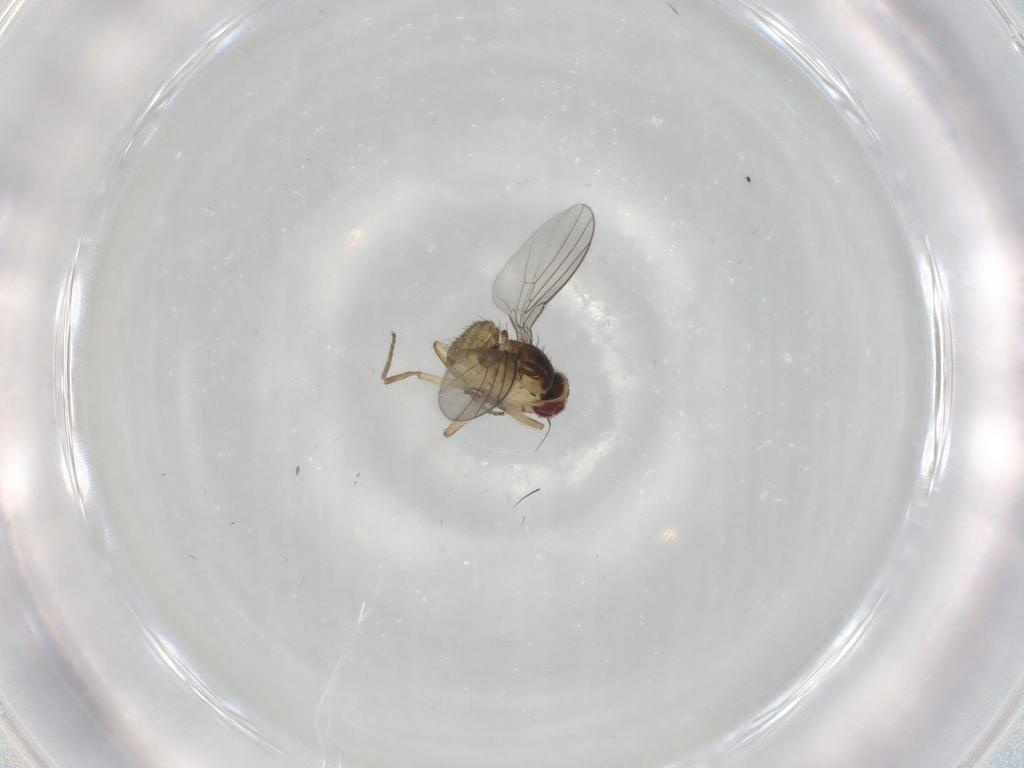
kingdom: Animalia
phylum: Arthropoda
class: Insecta
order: Diptera
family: Agromyzidae
